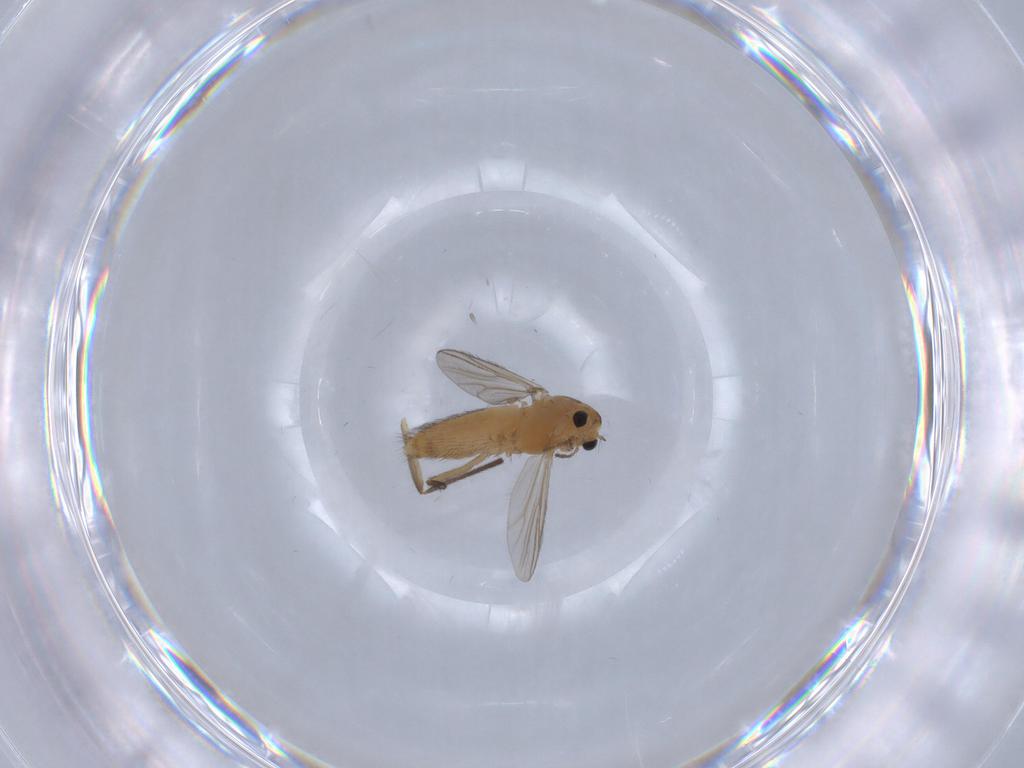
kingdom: Animalia
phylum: Arthropoda
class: Insecta
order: Diptera
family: Chironomidae
